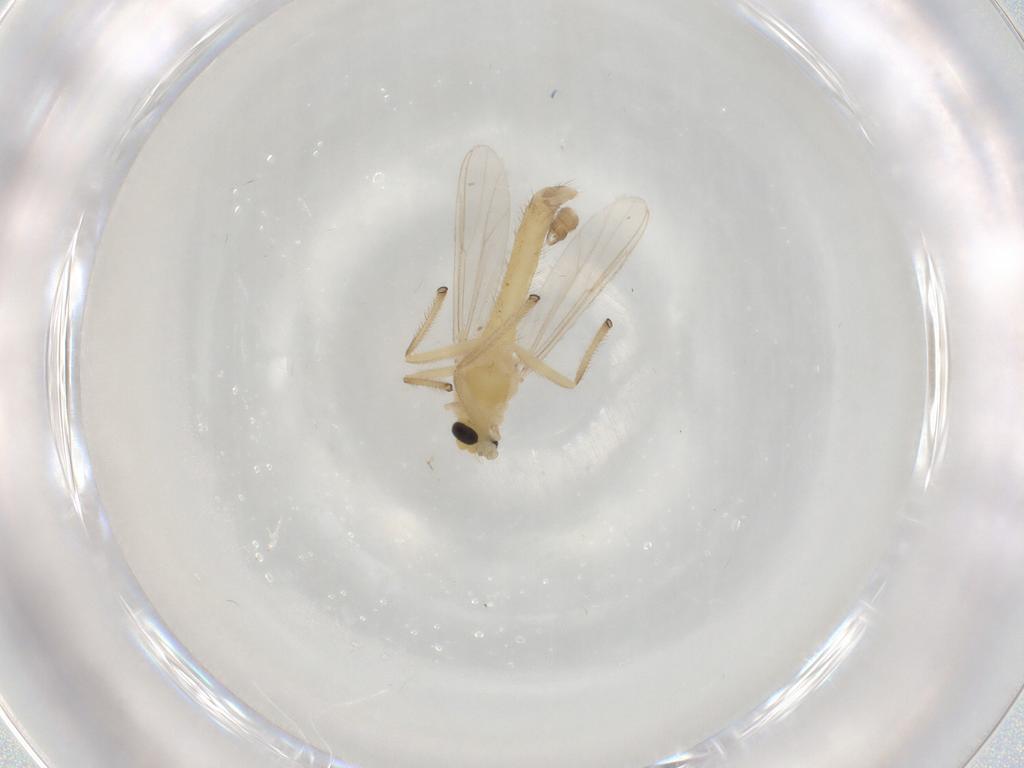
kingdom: Animalia
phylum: Arthropoda
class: Insecta
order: Diptera
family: Chironomidae
